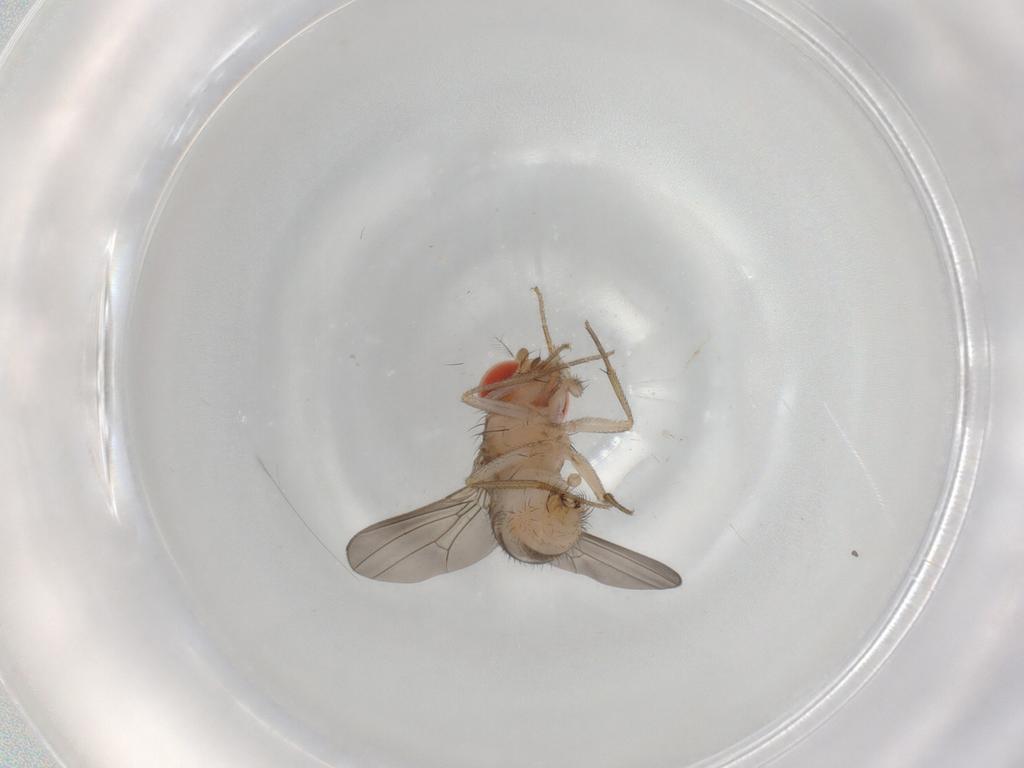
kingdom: Animalia
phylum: Arthropoda
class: Insecta
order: Diptera
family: Drosophilidae
